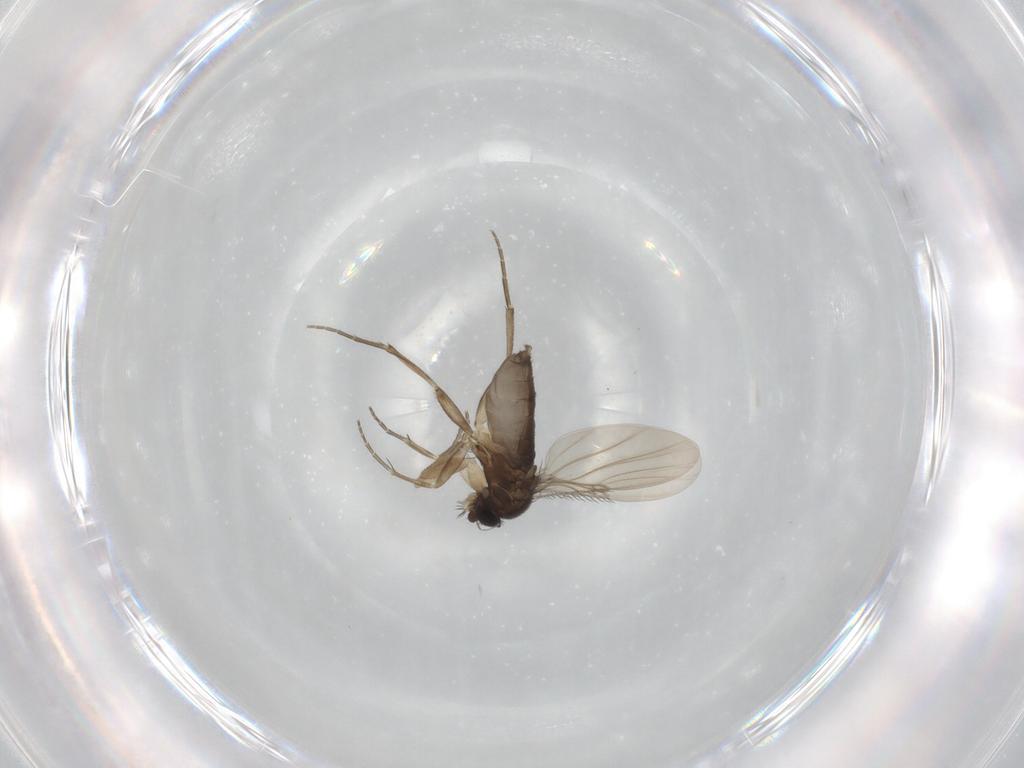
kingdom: Animalia
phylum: Arthropoda
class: Insecta
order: Diptera
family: Phoridae
